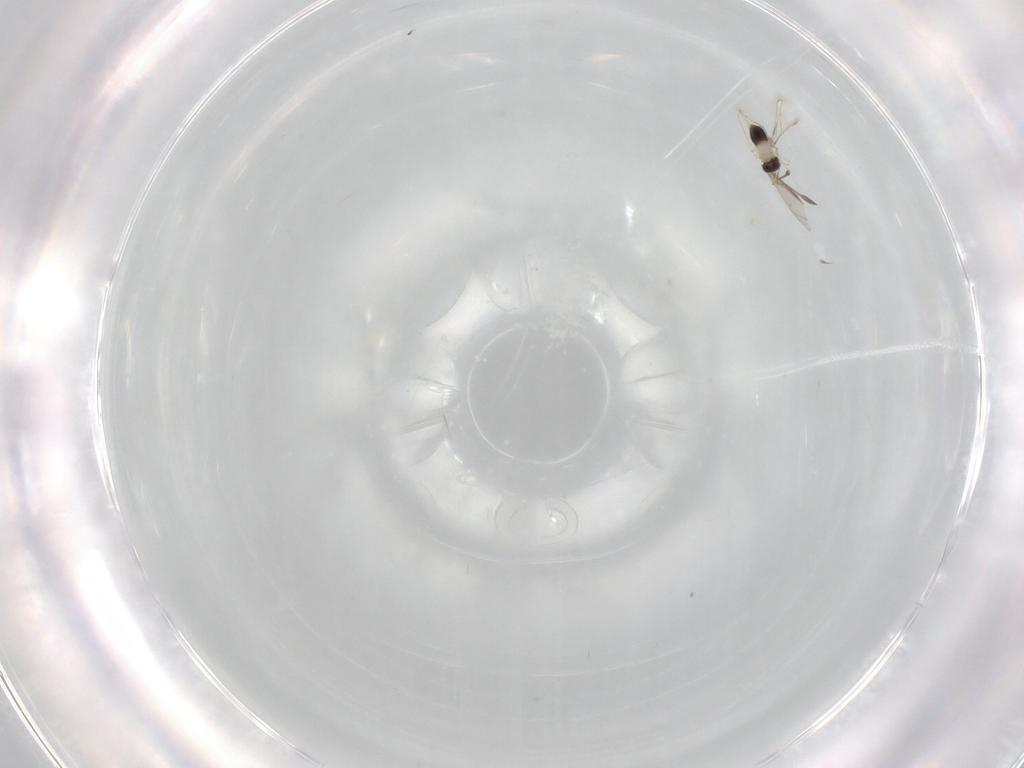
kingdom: Animalia
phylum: Arthropoda
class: Insecta
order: Hymenoptera
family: Mymaridae
